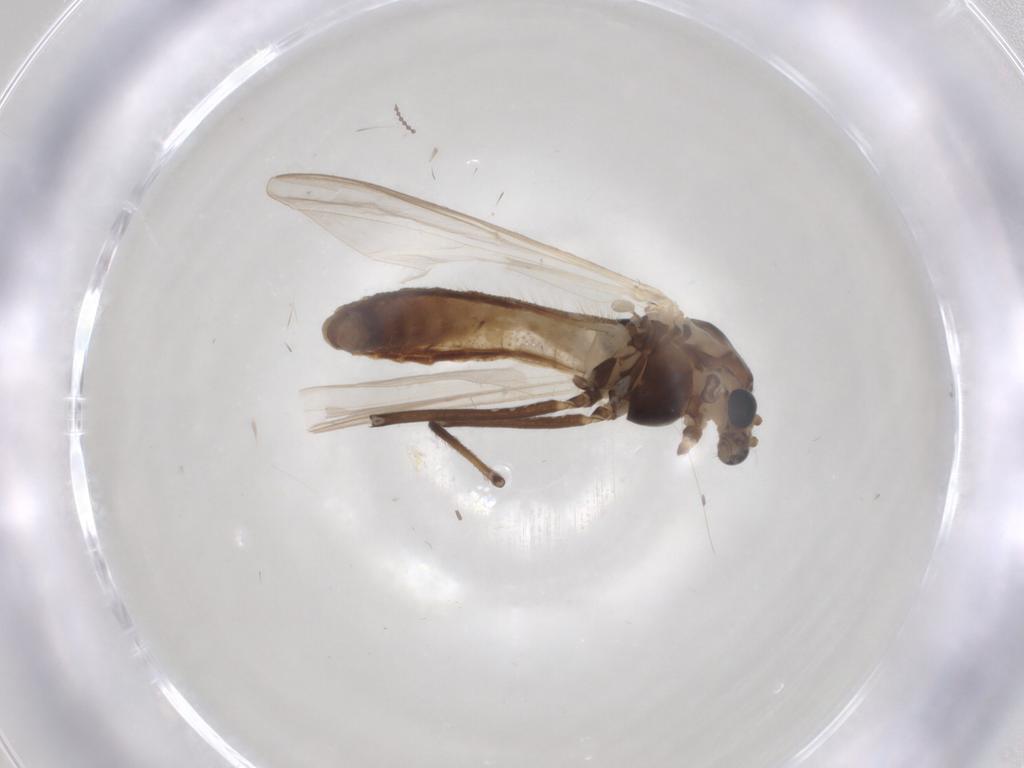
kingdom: Animalia
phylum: Arthropoda
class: Insecta
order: Diptera
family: Chironomidae
